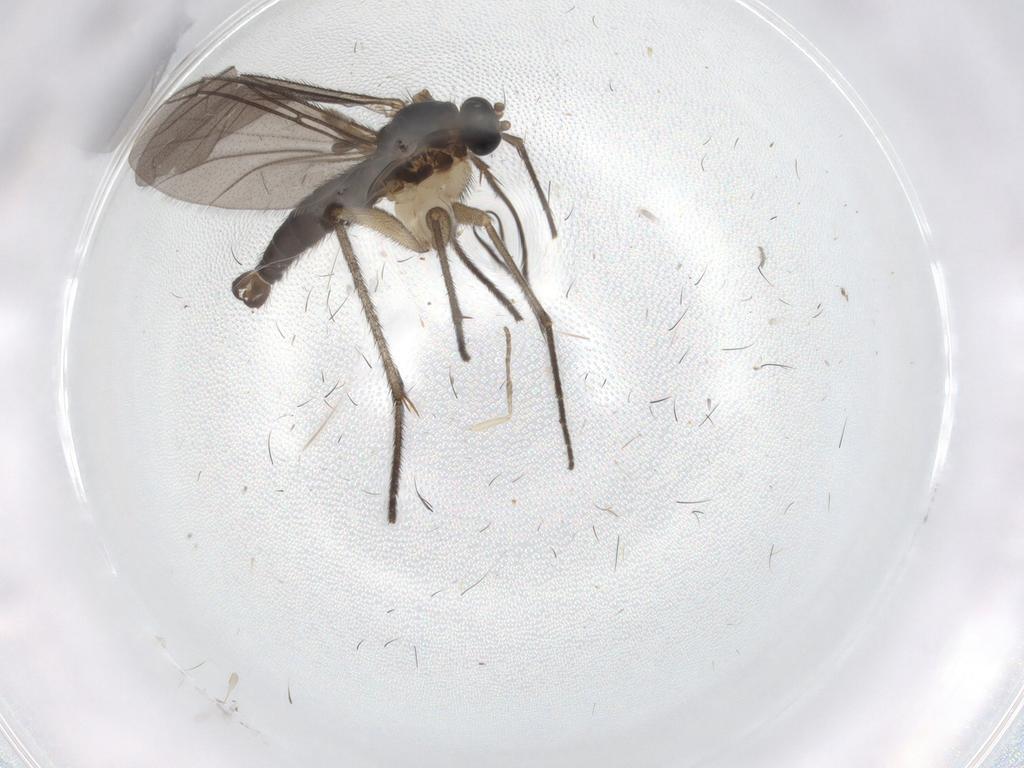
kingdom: Animalia
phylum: Arthropoda
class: Insecta
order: Diptera
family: Sciaridae
